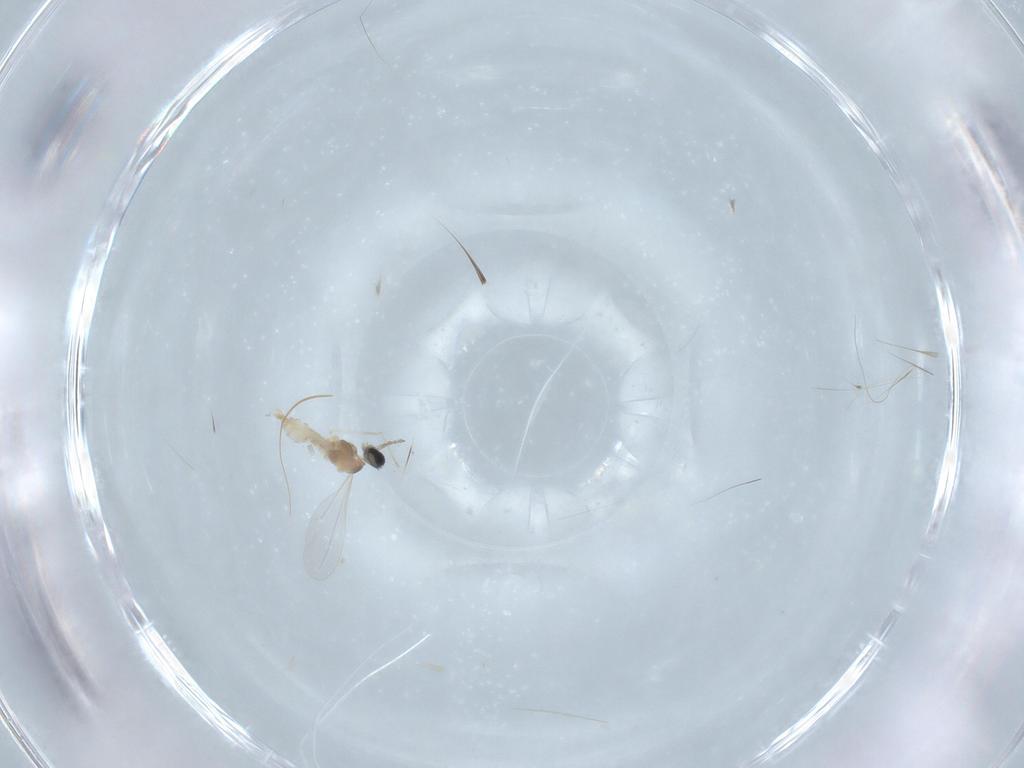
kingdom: Animalia
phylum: Arthropoda
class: Insecta
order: Diptera
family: Cecidomyiidae
